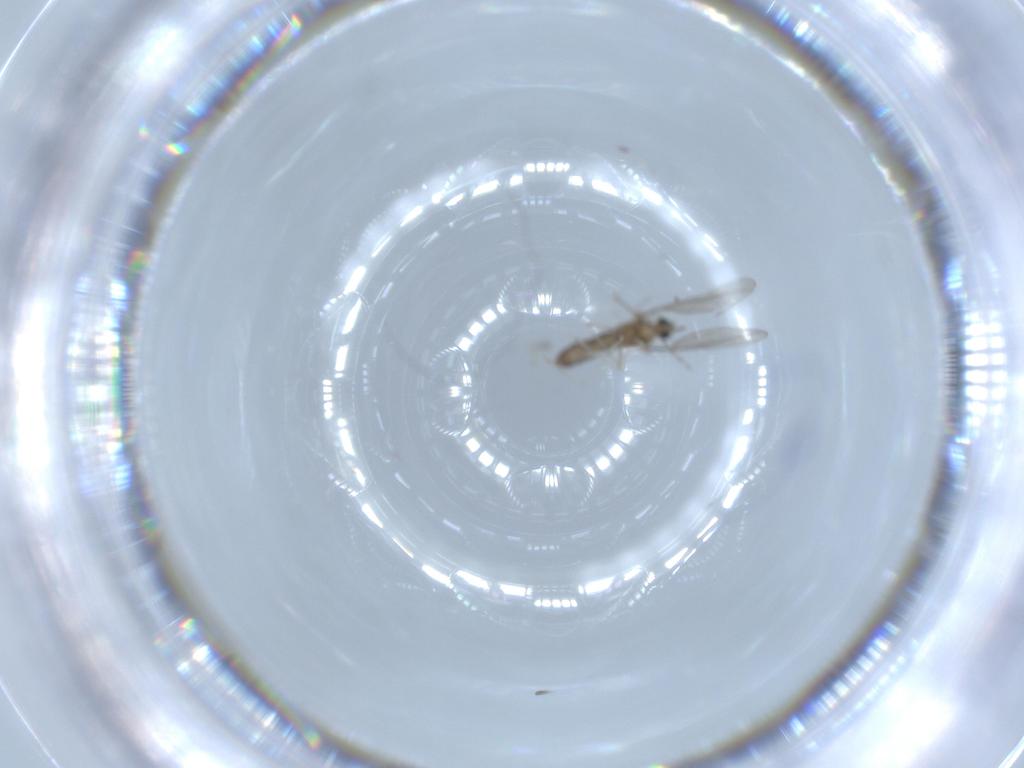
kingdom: Animalia
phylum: Arthropoda
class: Insecta
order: Diptera
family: Cecidomyiidae
